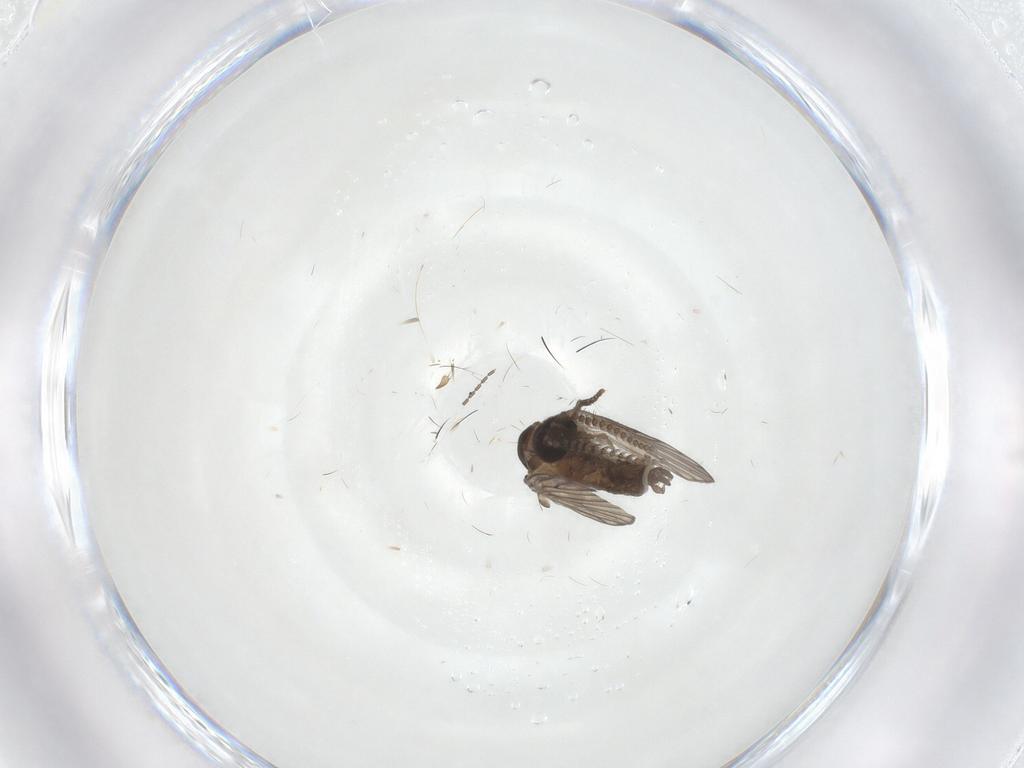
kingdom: Animalia
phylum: Arthropoda
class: Insecta
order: Diptera
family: Psychodidae
